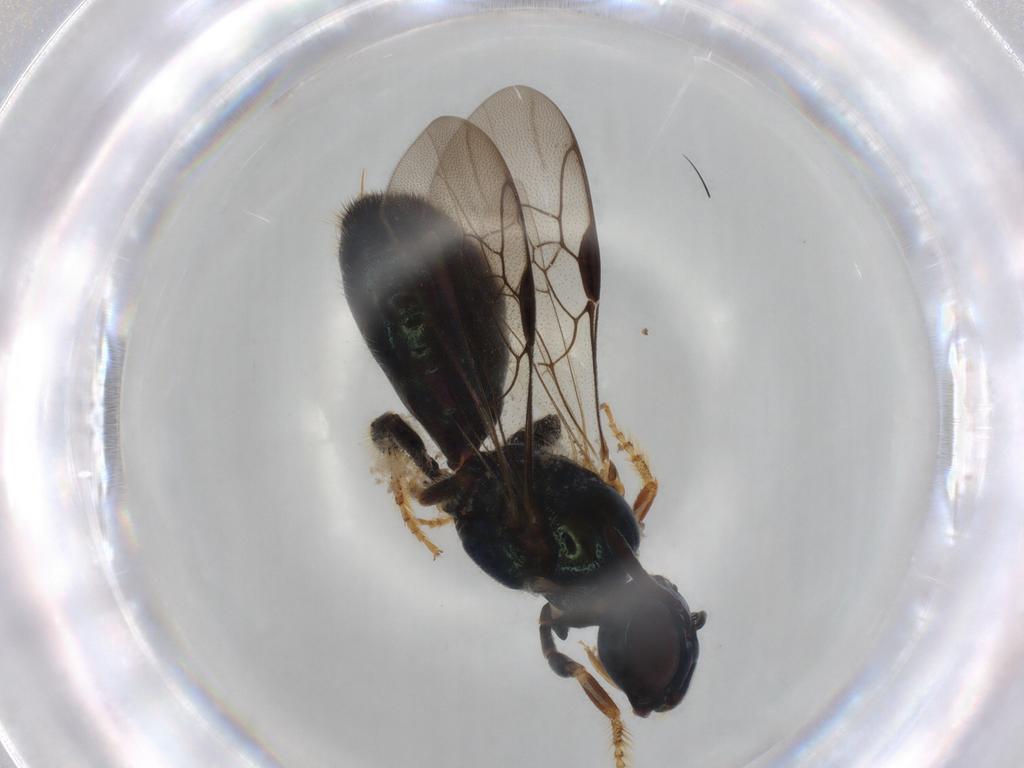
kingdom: Animalia
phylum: Arthropoda
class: Insecta
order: Hymenoptera
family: Apidae
